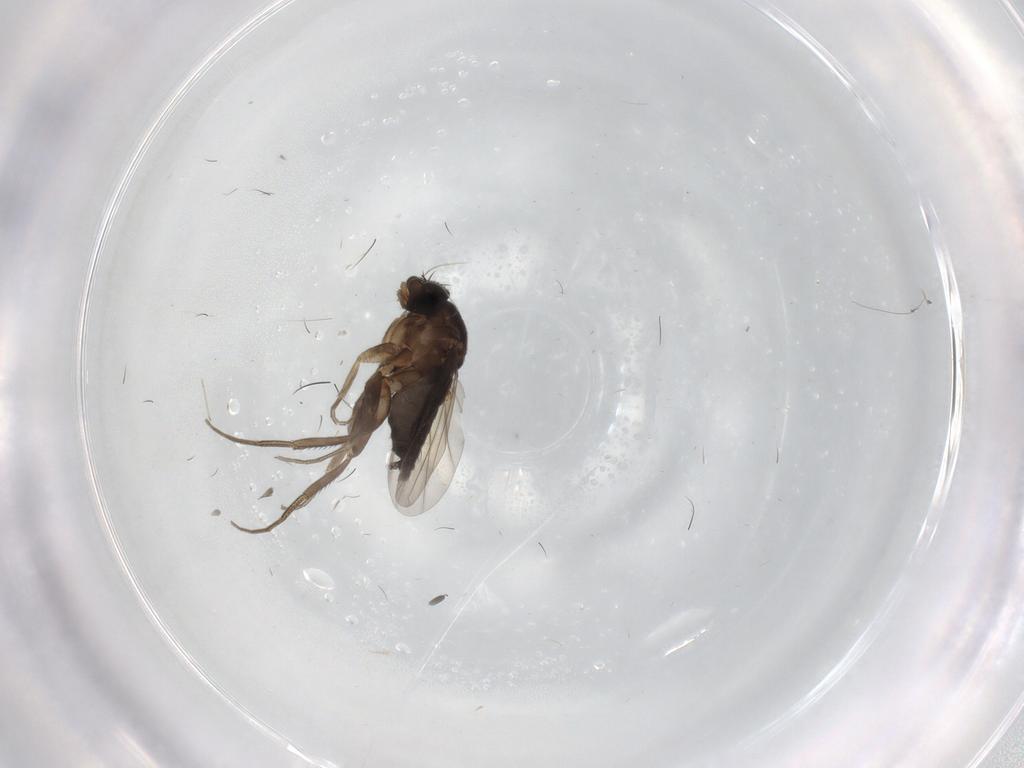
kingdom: Animalia
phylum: Arthropoda
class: Insecta
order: Diptera
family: Phoridae
